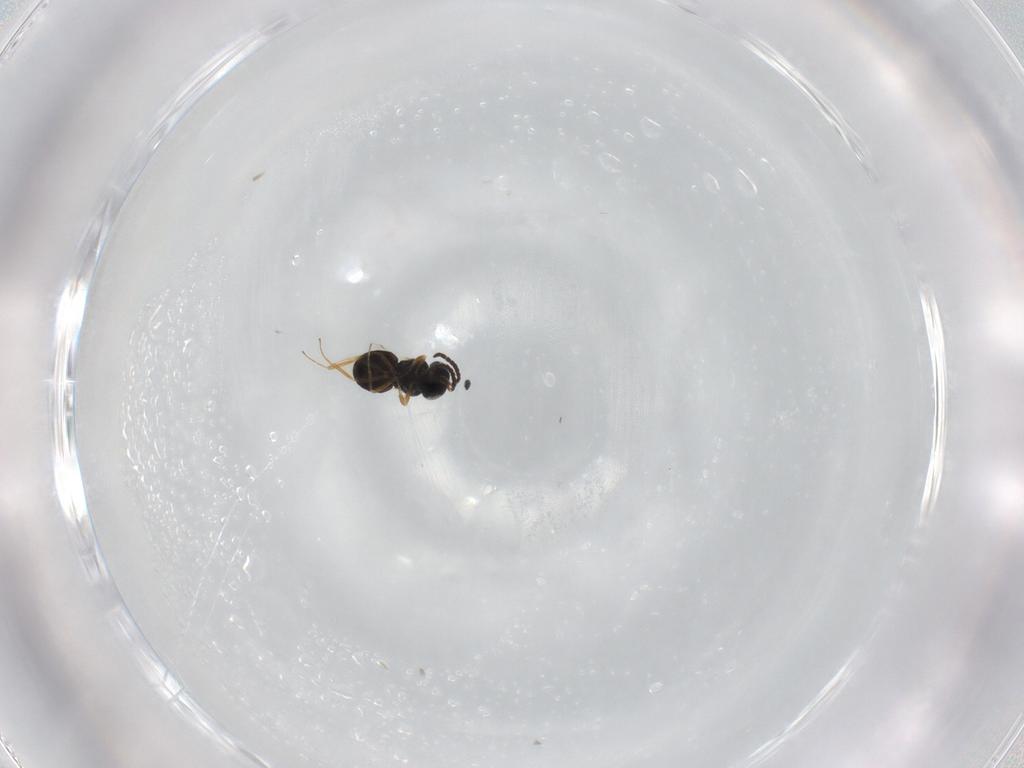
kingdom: Animalia
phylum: Arthropoda
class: Insecta
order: Hymenoptera
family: Scelionidae
